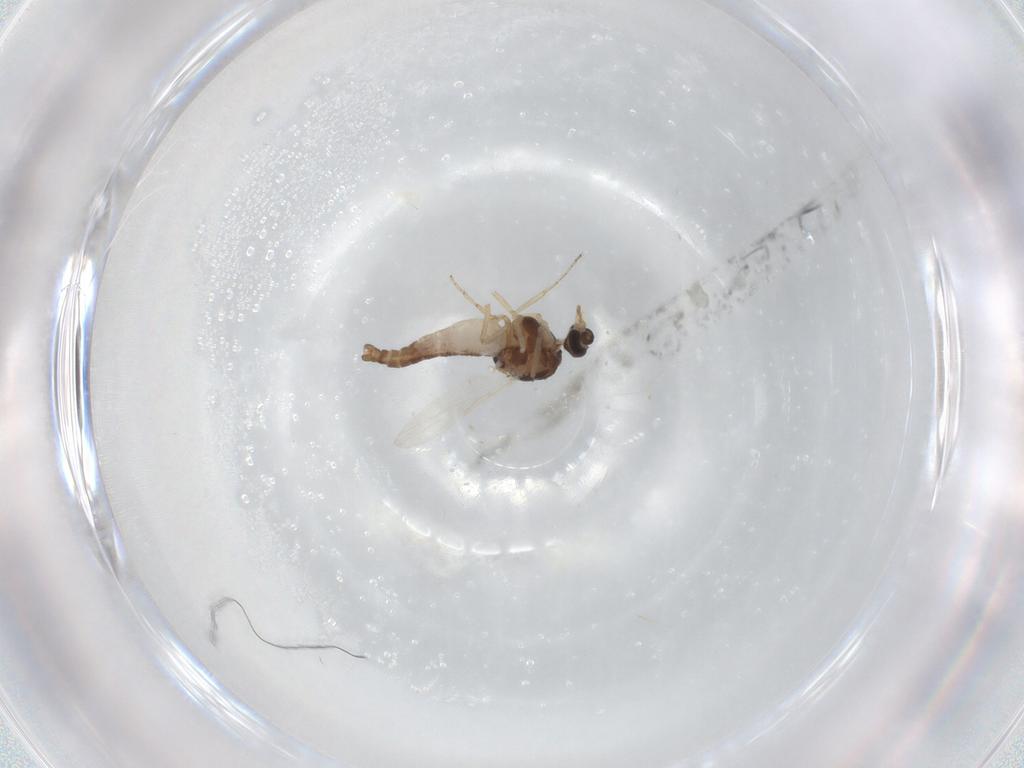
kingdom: Animalia
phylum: Arthropoda
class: Insecta
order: Diptera
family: Ceratopogonidae
